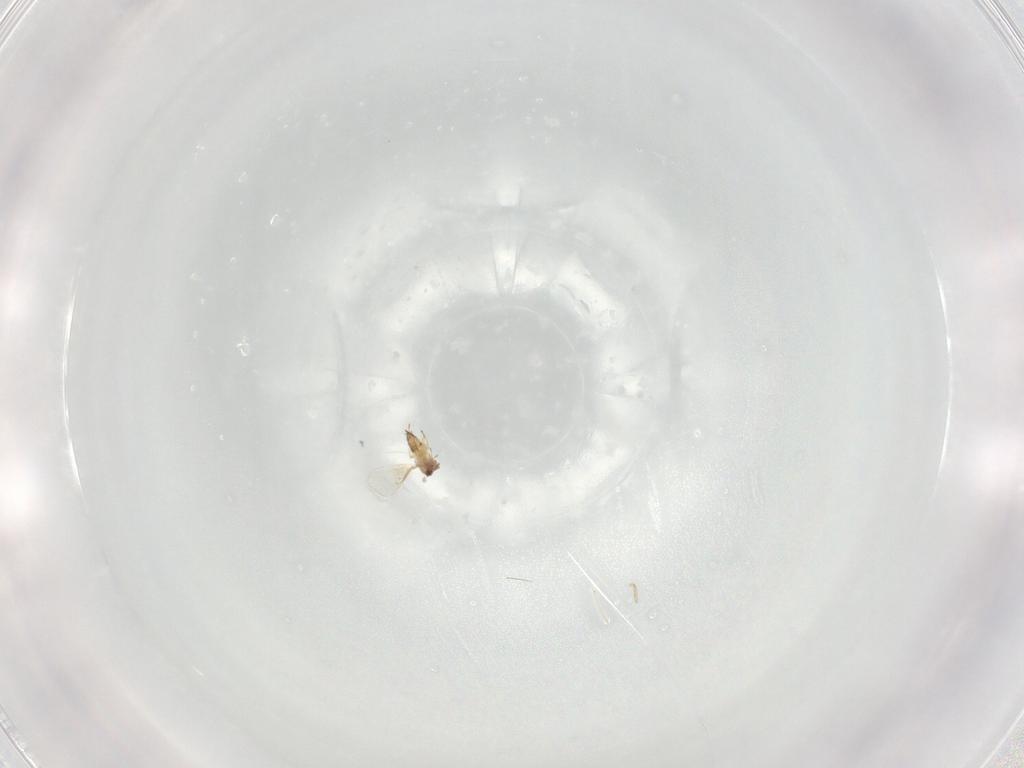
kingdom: Animalia
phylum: Arthropoda
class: Insecta
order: Hymenoptera
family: Trichogrammatidae
